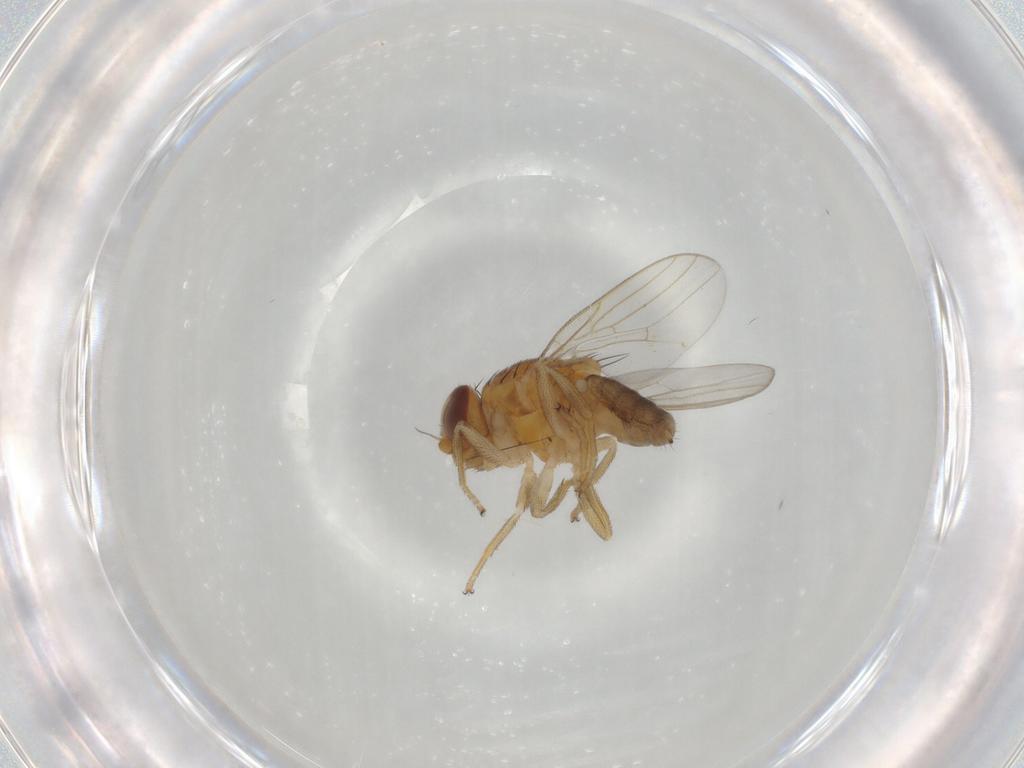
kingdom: Animalia
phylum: Arthropoda
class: Insecta
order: Diptera
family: Chloropidae
